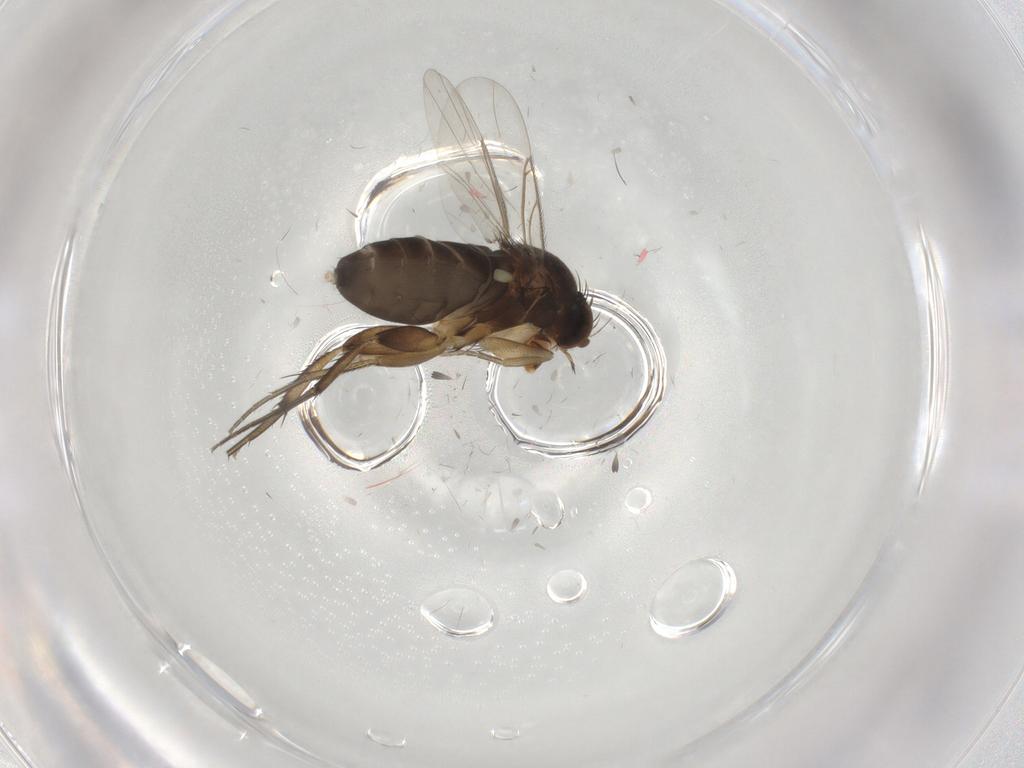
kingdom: Animalia
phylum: Arthropoda
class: Insecta
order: Diptera
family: Phoridae
